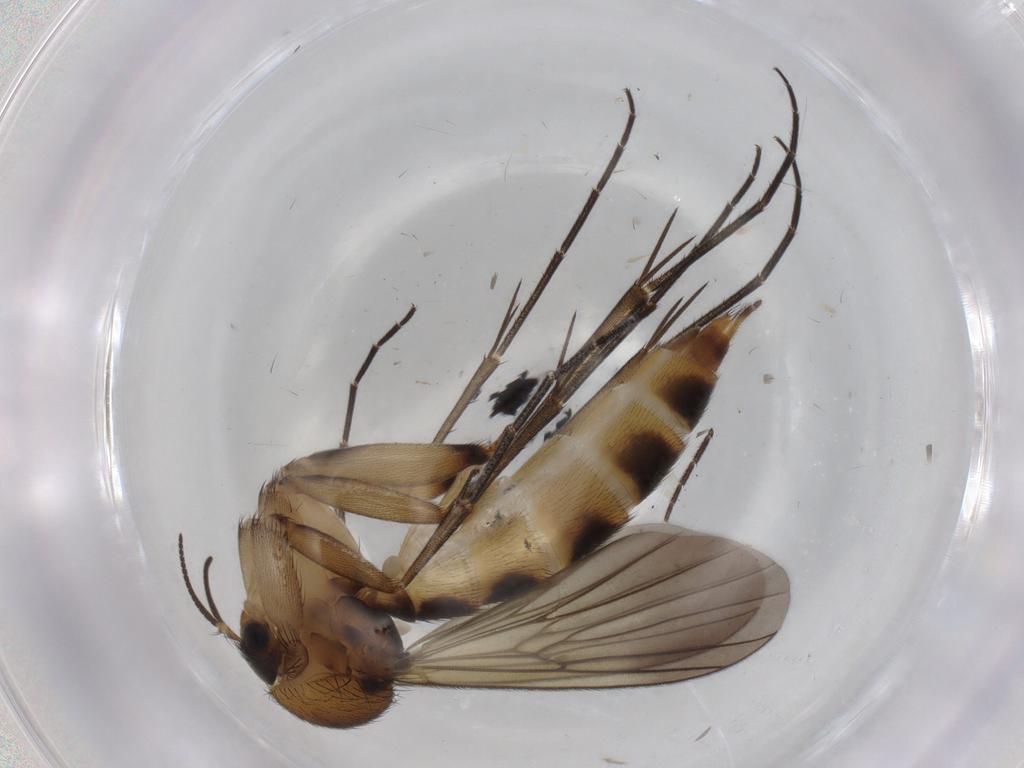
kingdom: Animalia
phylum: Arthropoda
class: Insecta
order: Diptera
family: Mycetophilidae
